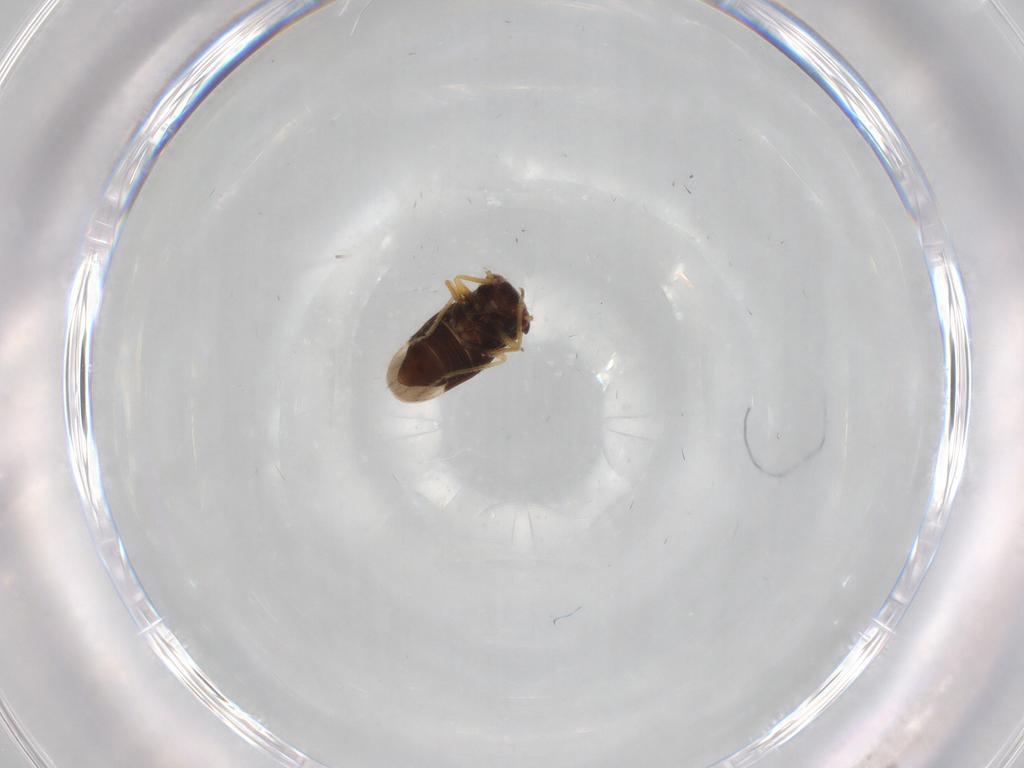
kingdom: Animalia
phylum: Arthropoda
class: Insecta
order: Hemiptera
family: Schizopteridae
